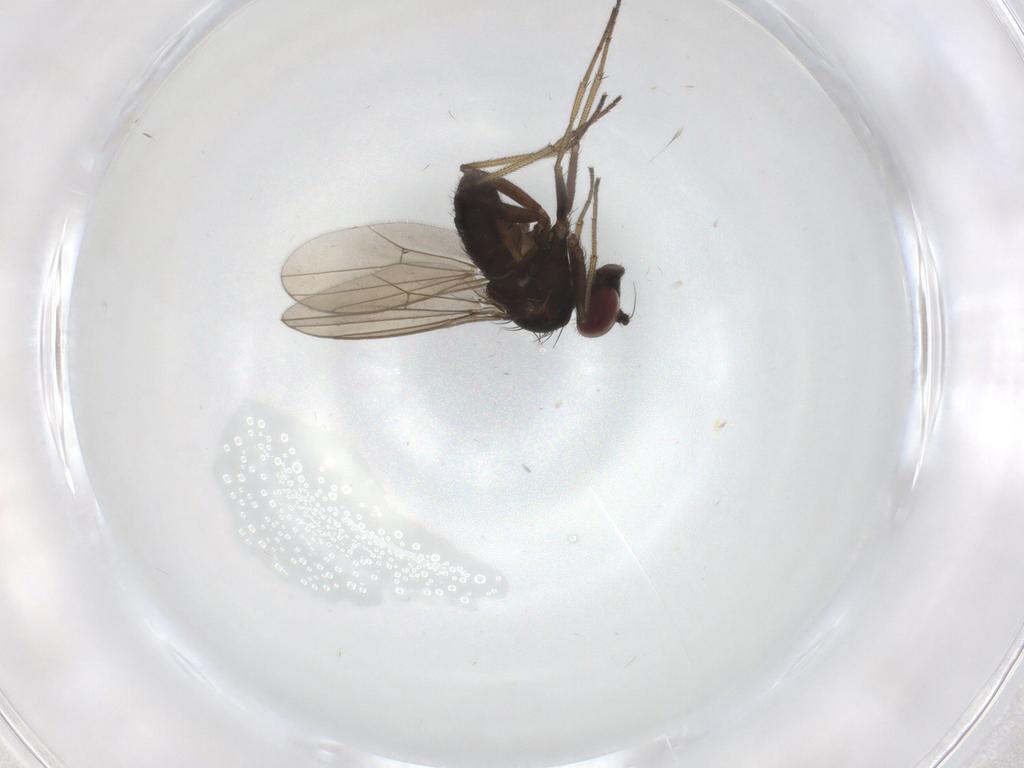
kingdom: Animalia
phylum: Arthropoda
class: Insecta
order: Diptera
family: Dolichopodidae
